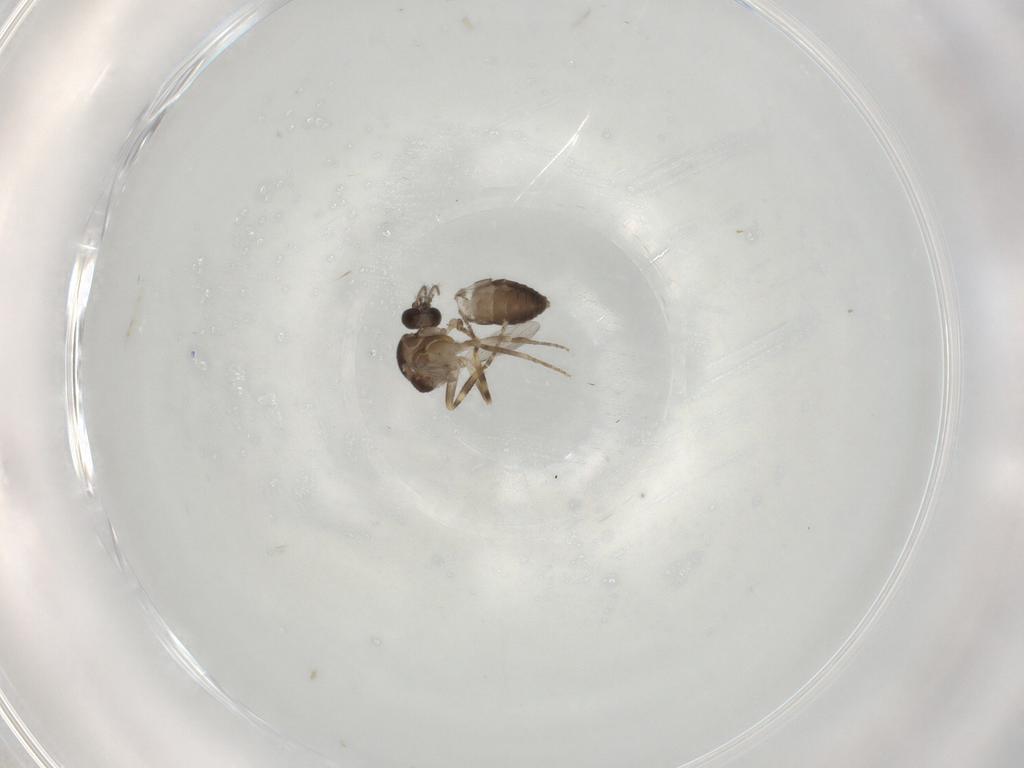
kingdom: Animalia
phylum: Arthropoda
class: Insecta
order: Diptera
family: Ceratopogonidae
